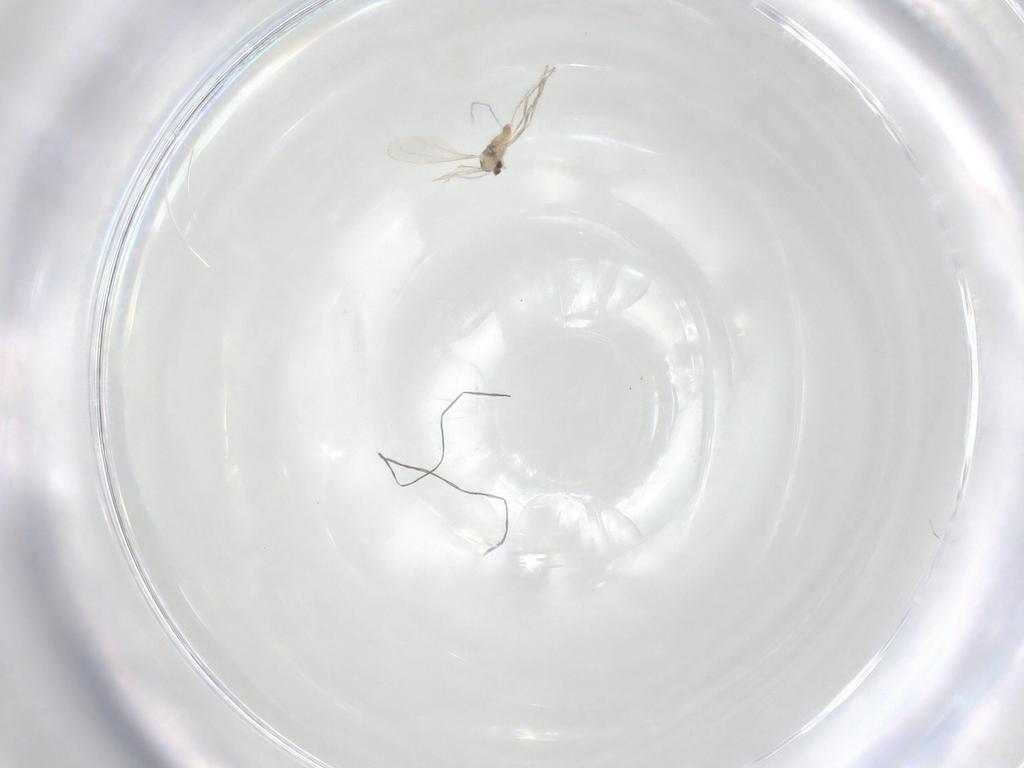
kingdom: Animalia
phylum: Arthropoda
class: Insecta
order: Diptera
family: Cecidomyiidae
